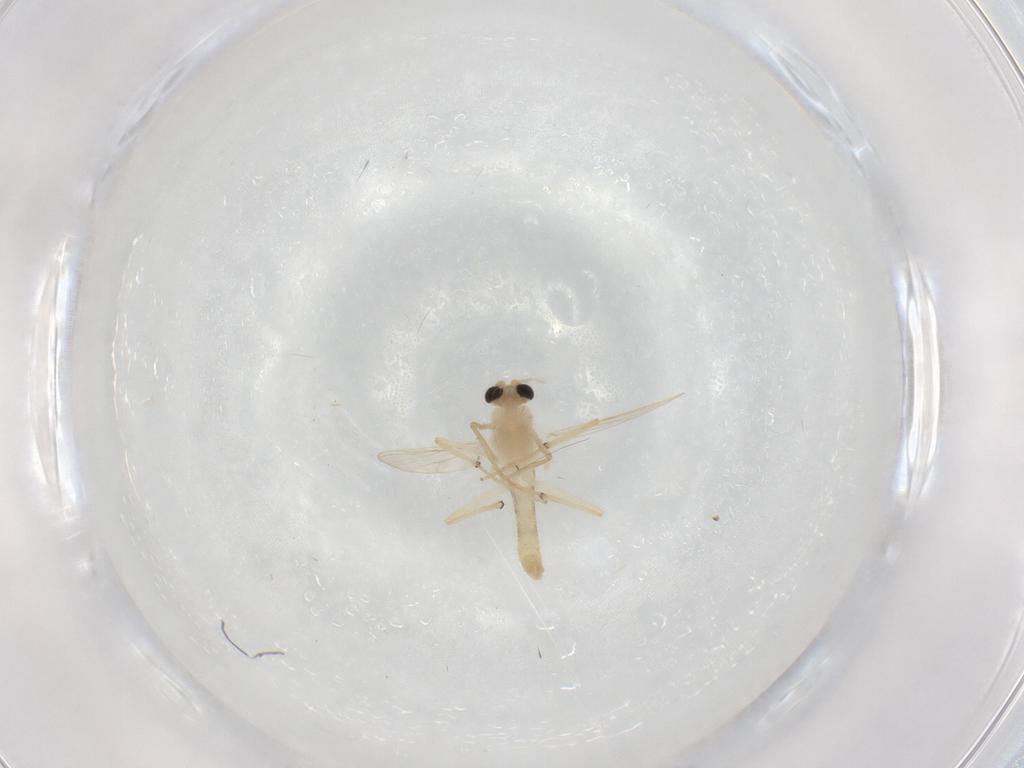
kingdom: Animalia
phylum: Arthropoda
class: Insecta
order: Diptera
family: Chironomidae
